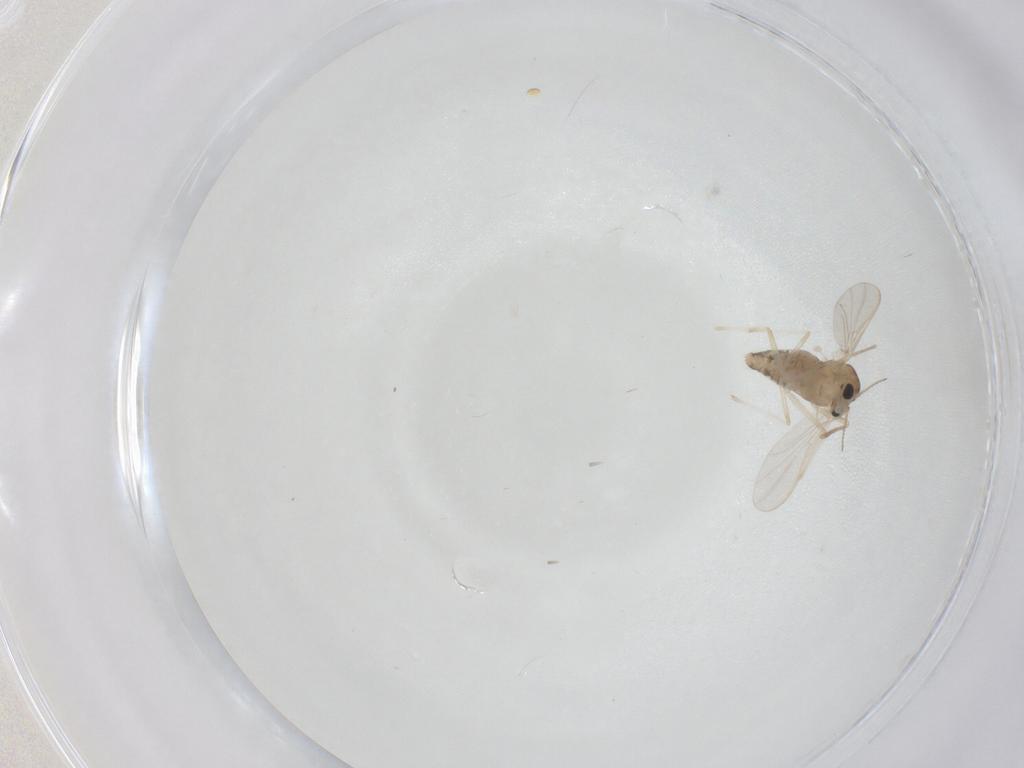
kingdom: Animalia
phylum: Arthropoda
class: Insecta
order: Diptera
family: Chironomidae
